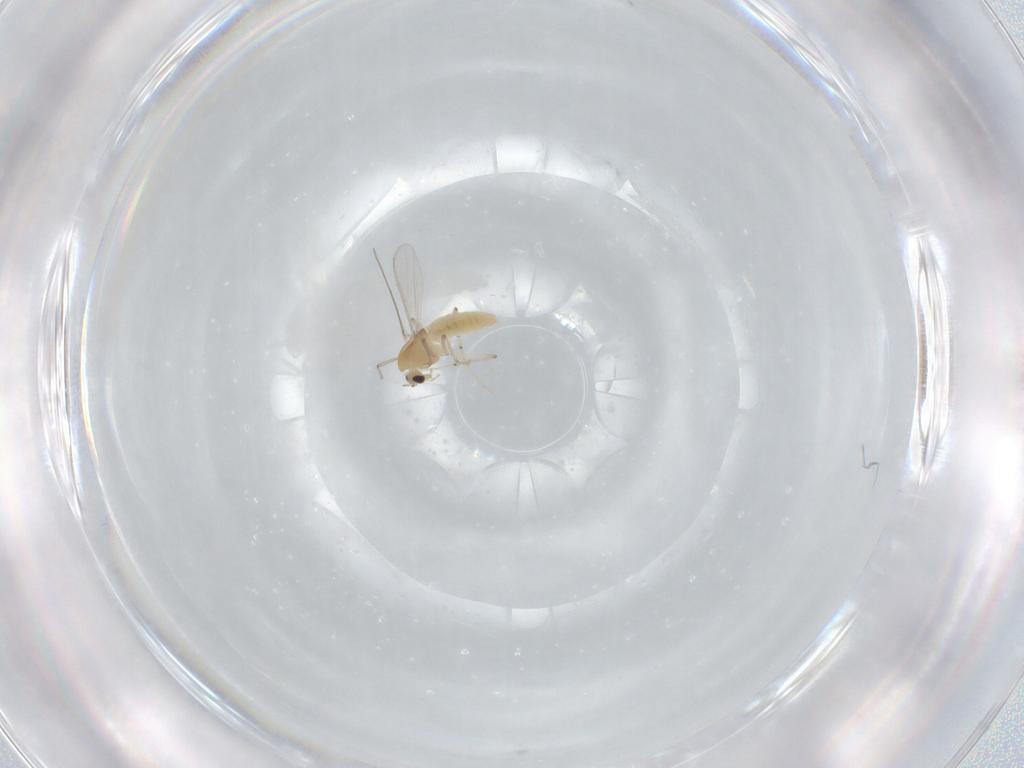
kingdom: Animalia
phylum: Arthropoda
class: Insecta
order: Diptera
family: Chironomidae
